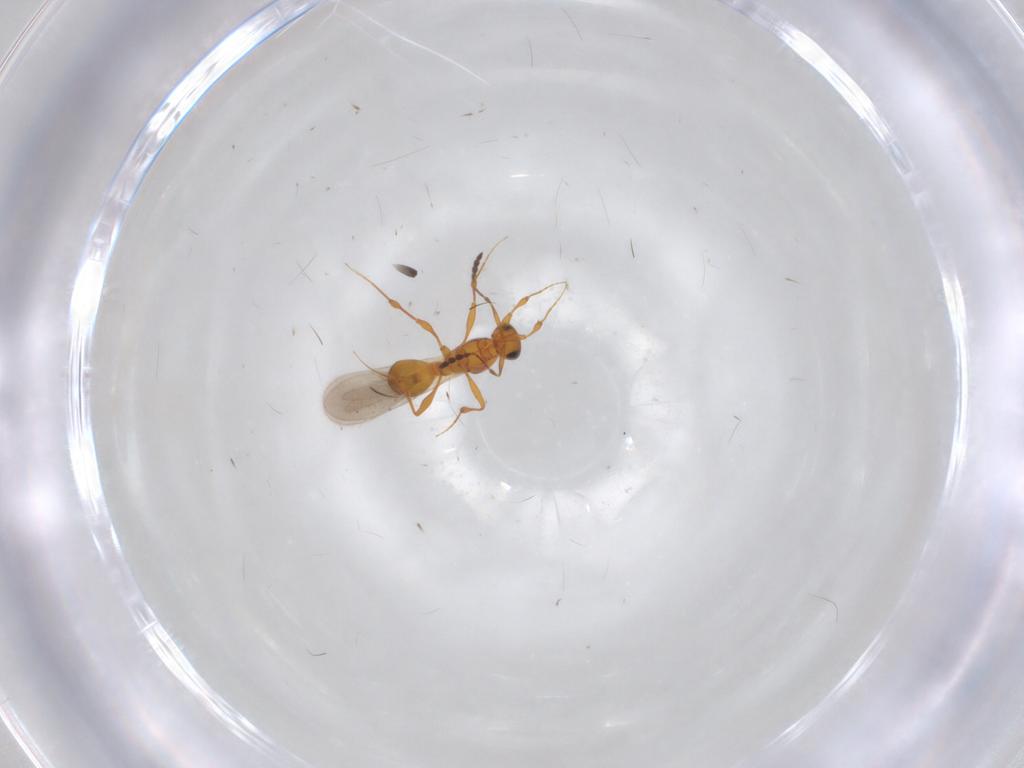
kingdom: Animalia
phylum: Arthropoda
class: Insecta
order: Hymenoptera
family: Platygastridae
